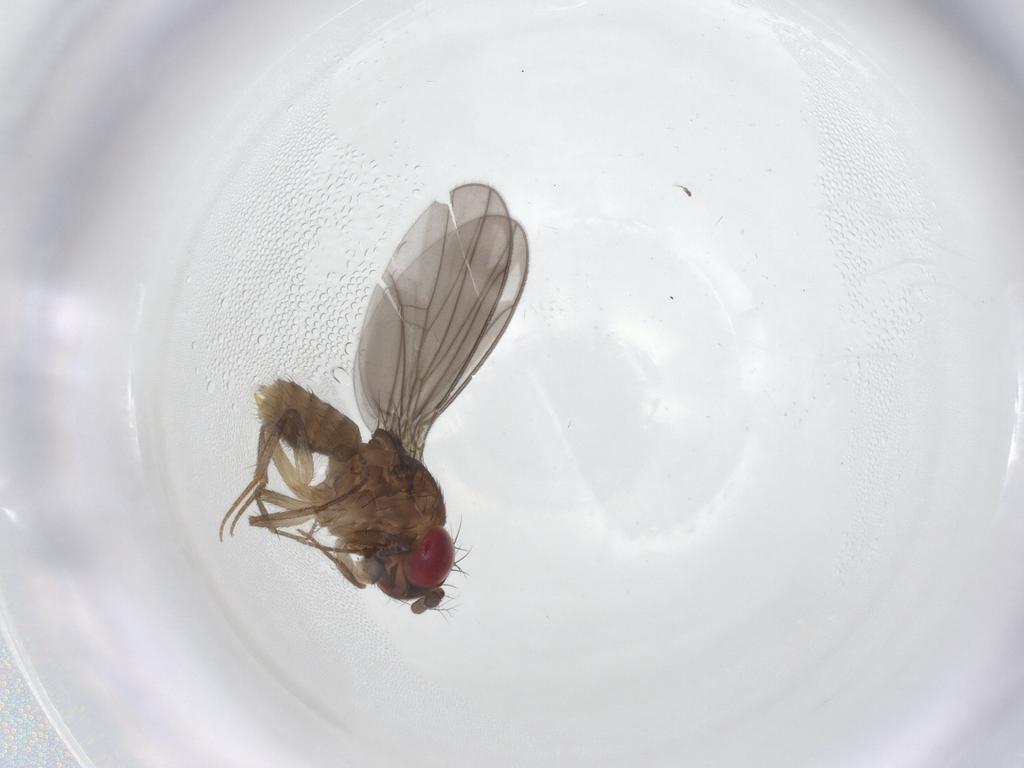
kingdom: Animalia
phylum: Arthropoda
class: Insecta
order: Diptera
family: Drosophilidae
